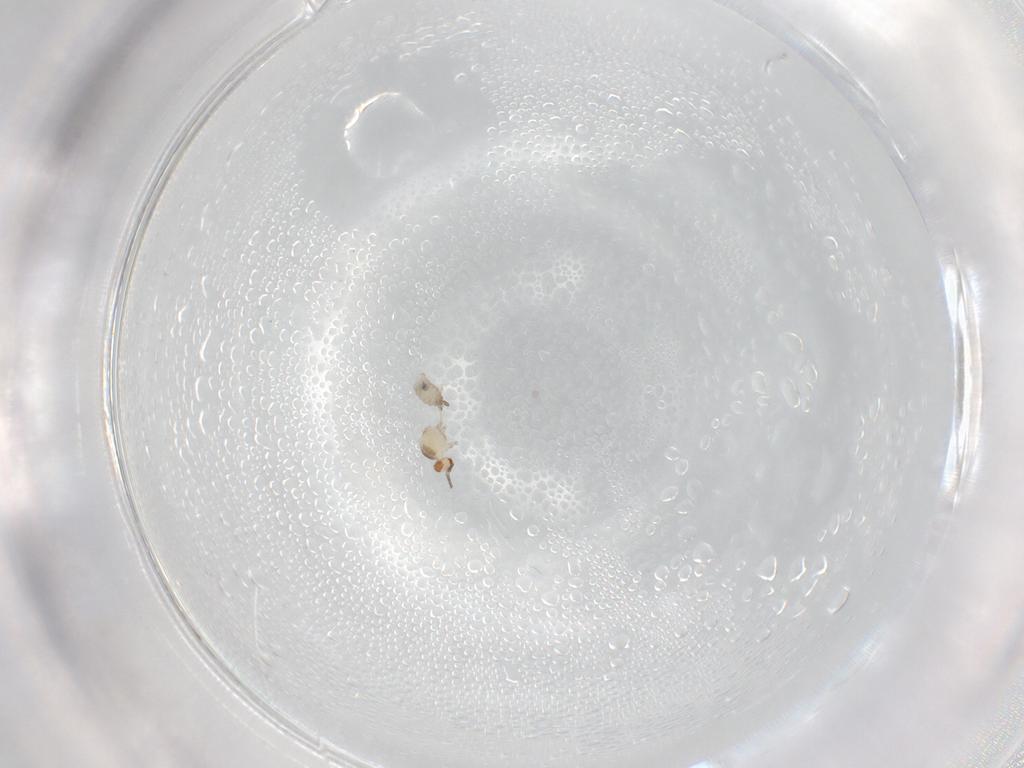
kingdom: Animalia
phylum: Arthropoda
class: Insecta
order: Diptera
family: Cecidomyiidae
